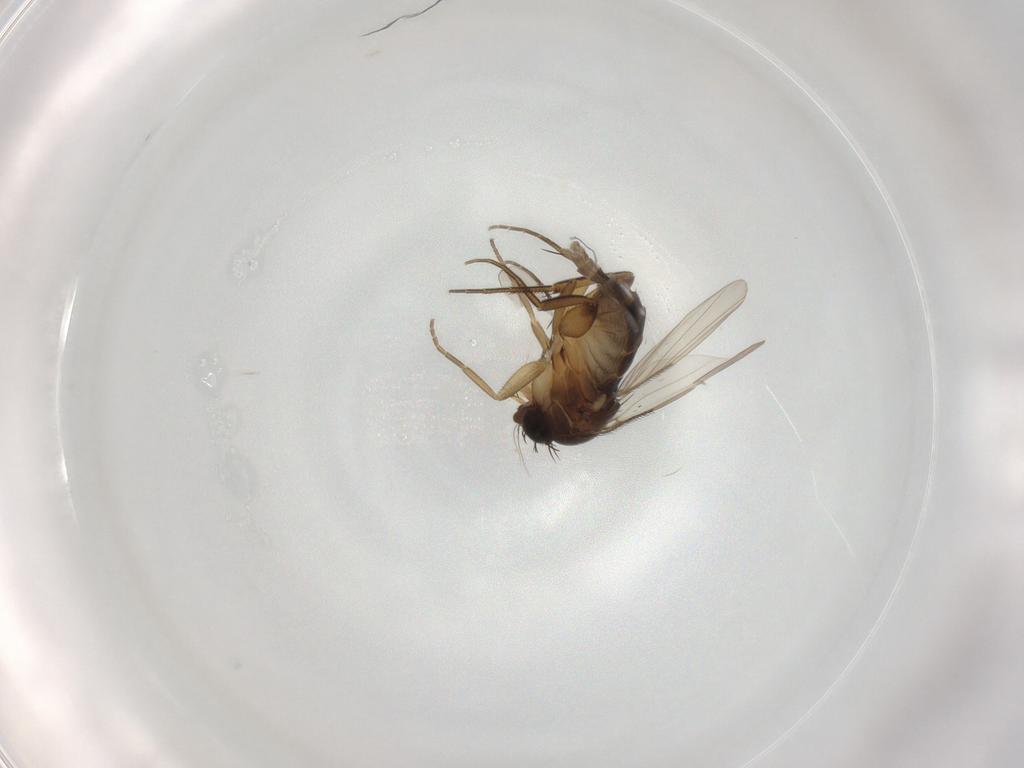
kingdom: Animalia
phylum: Arthropoda
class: Insecta
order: Diptera
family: Phoridae
